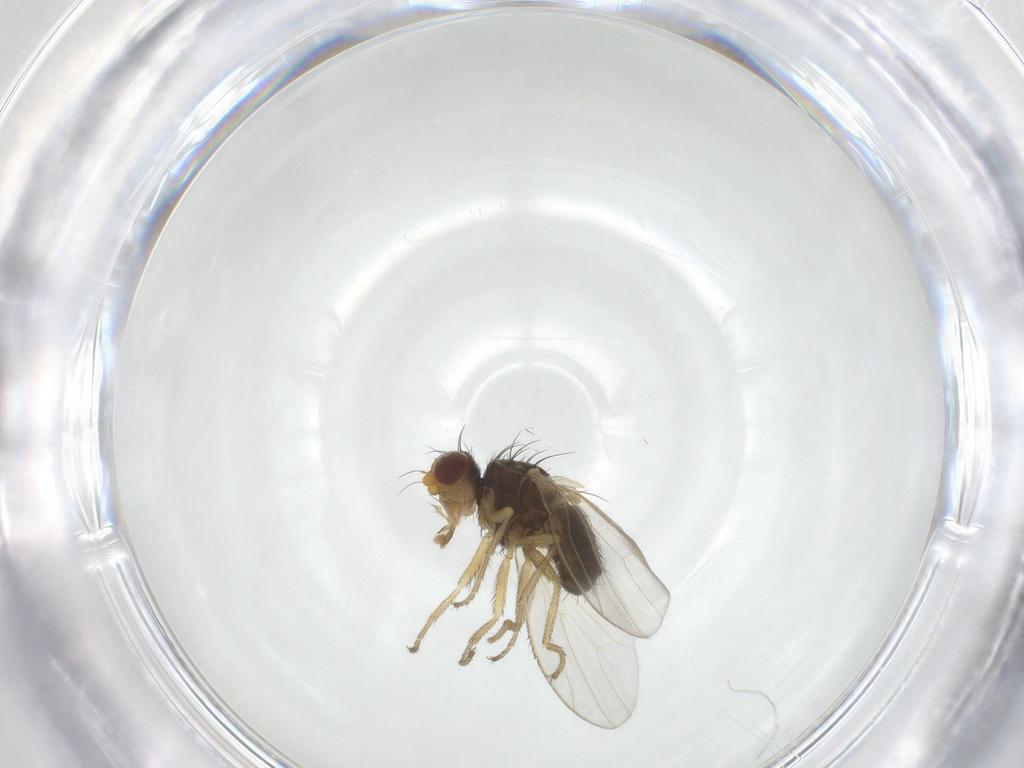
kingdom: Animalia
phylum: Arthropoda
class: Insecta
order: Diptera
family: Heleomyzidae
